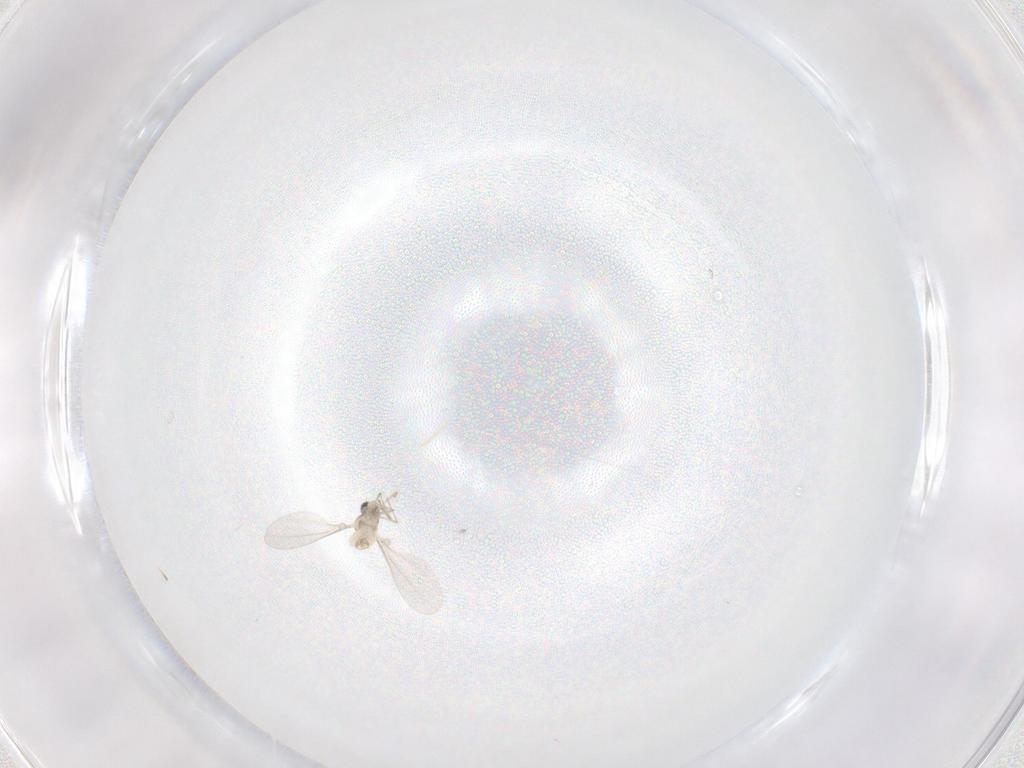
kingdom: Animalia
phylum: Arthropoda
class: Insecta
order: Diptera
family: Cecidomyiidae
